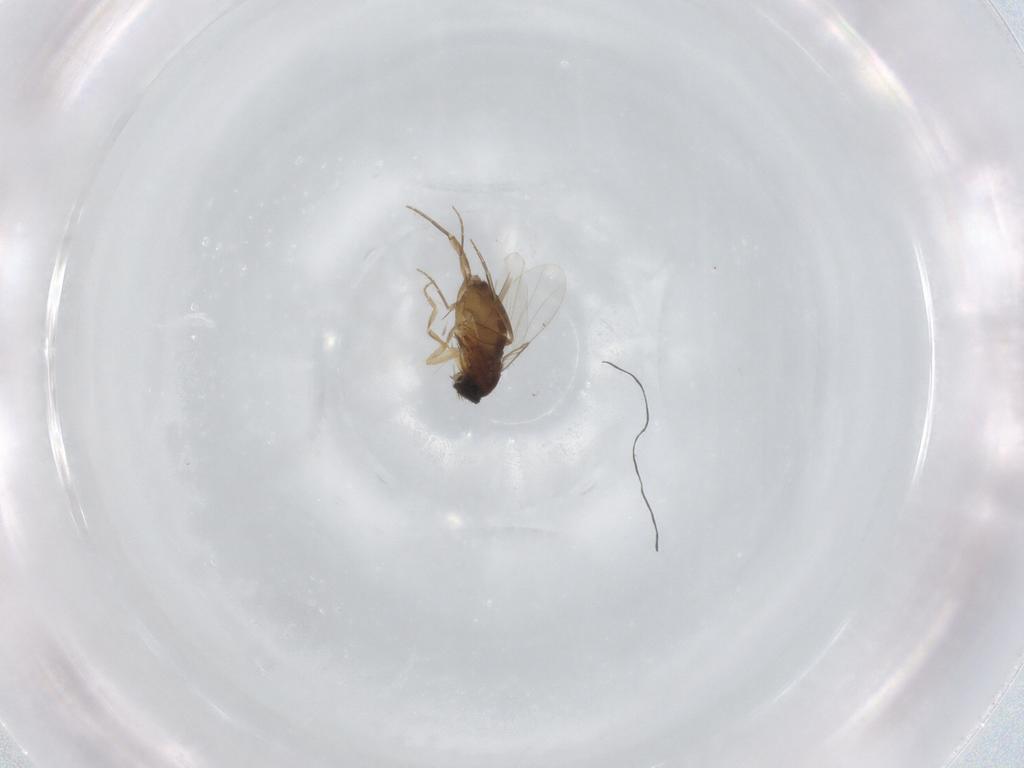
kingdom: Animalia
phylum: Arthropoda
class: Insecta
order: Diptera
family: Phoridae
